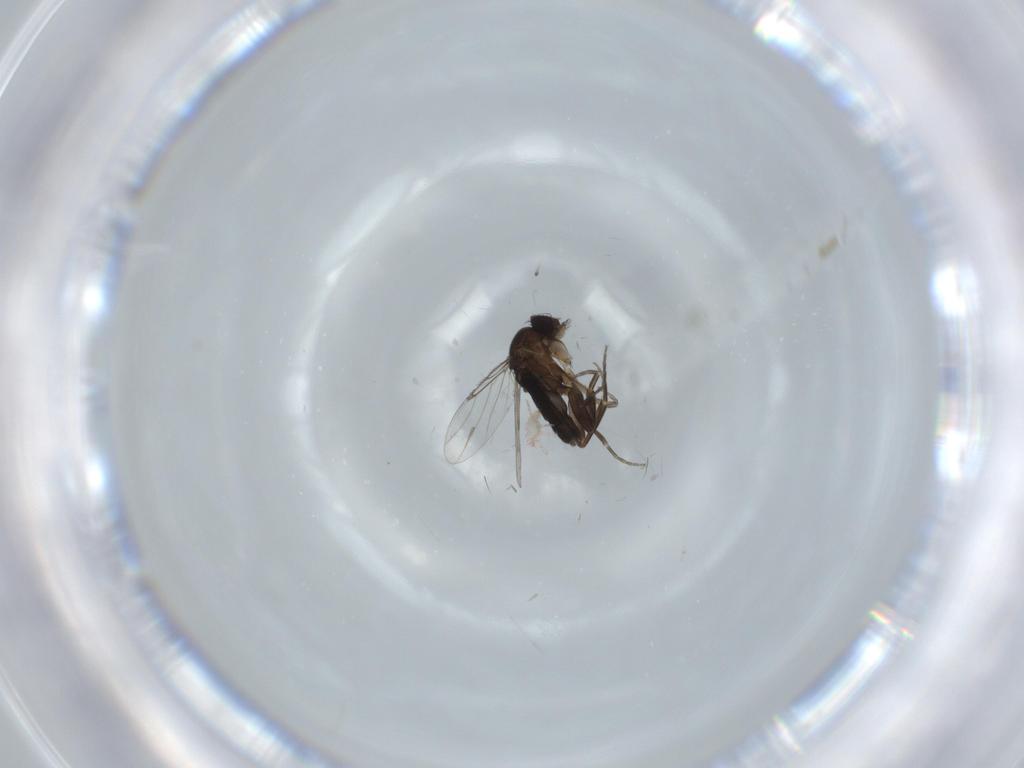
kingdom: Animalia
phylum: Arthropoda
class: Insecta
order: Diptera
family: Phoridae
